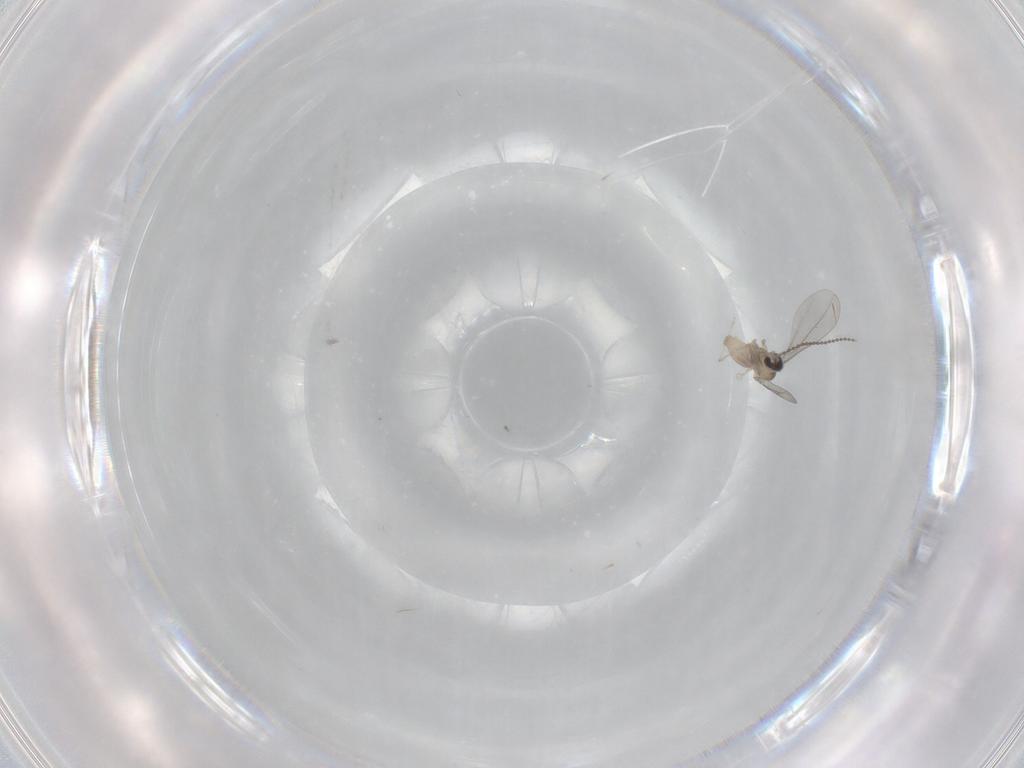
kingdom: Animalia
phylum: Arthropoda
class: Insecta
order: Diptera
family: Cecidomyiidae
